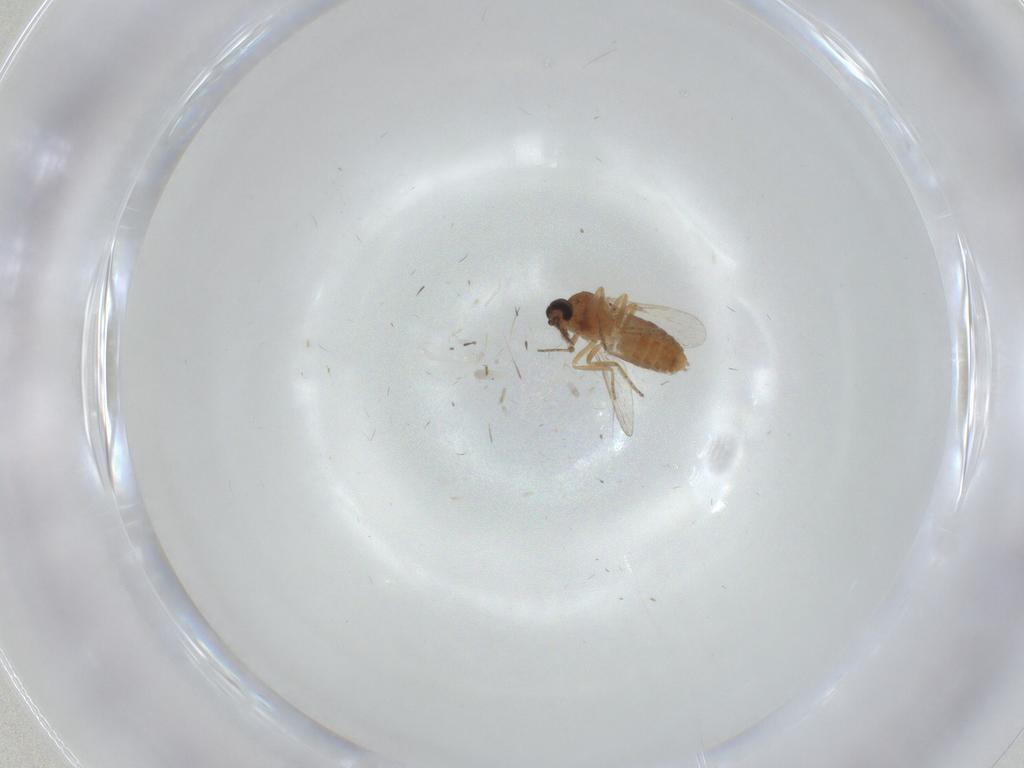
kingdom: Animalia
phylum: Arthropoda
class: Insecta
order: Diptera
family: Ceratopogonidae
